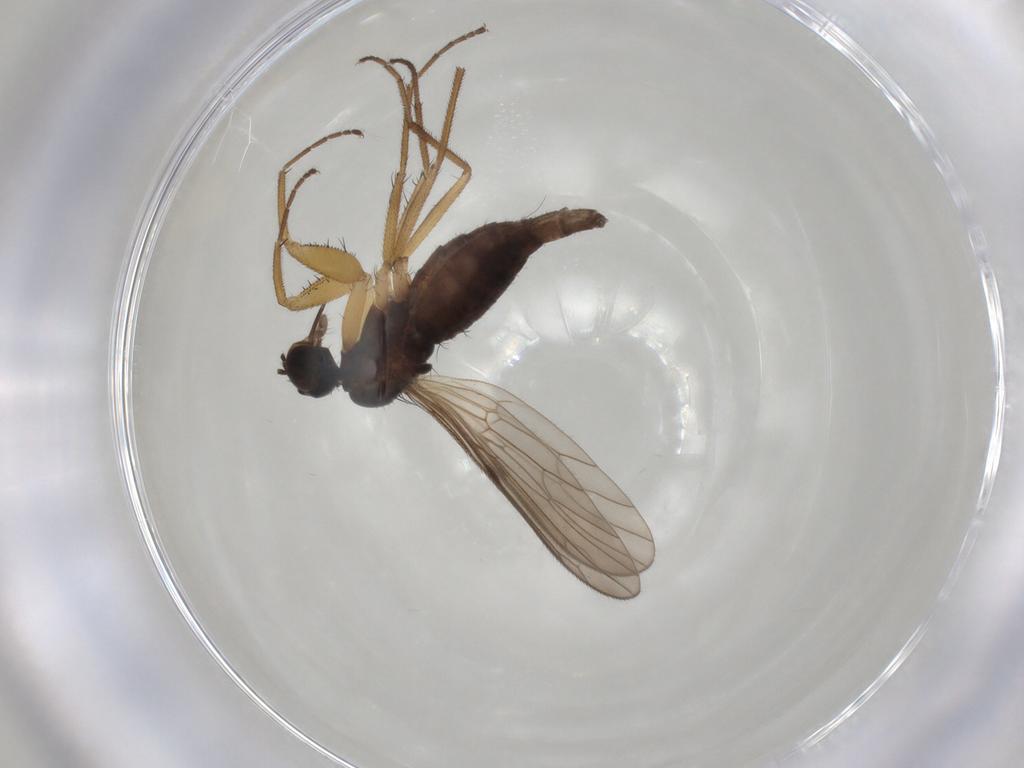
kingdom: Animalia
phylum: Arthropoda
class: Insecta
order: Diptera
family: Empididae
